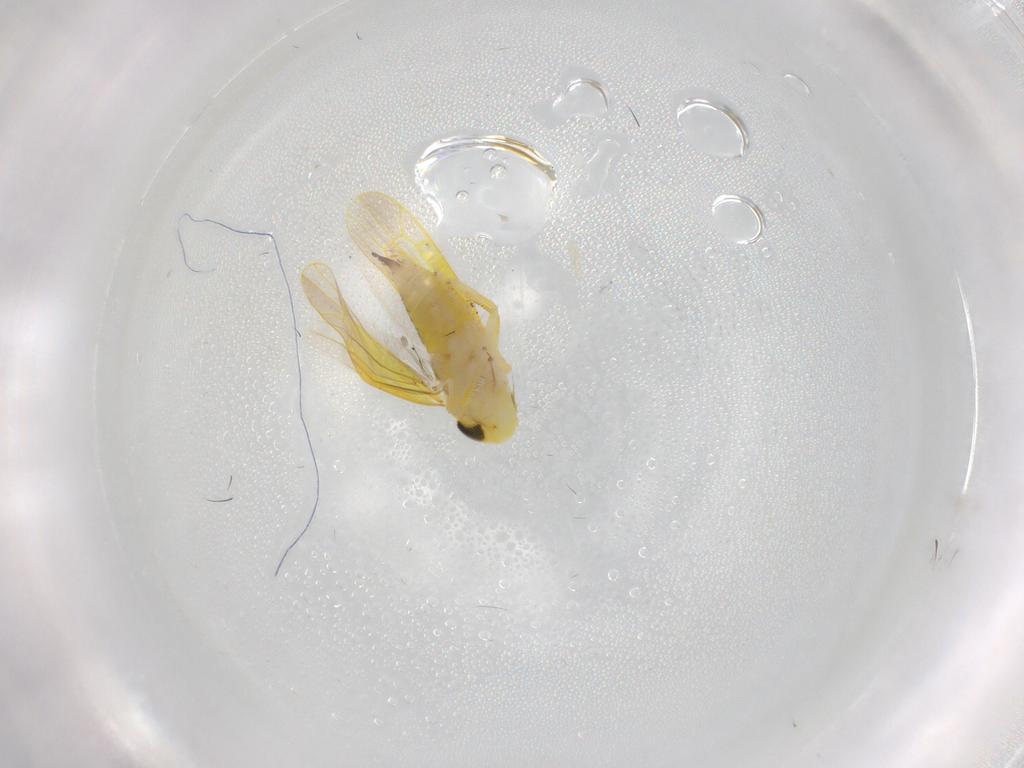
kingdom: Animalia
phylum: Arthropoda
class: Insecta
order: Hemiptera
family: Cicadellidae
